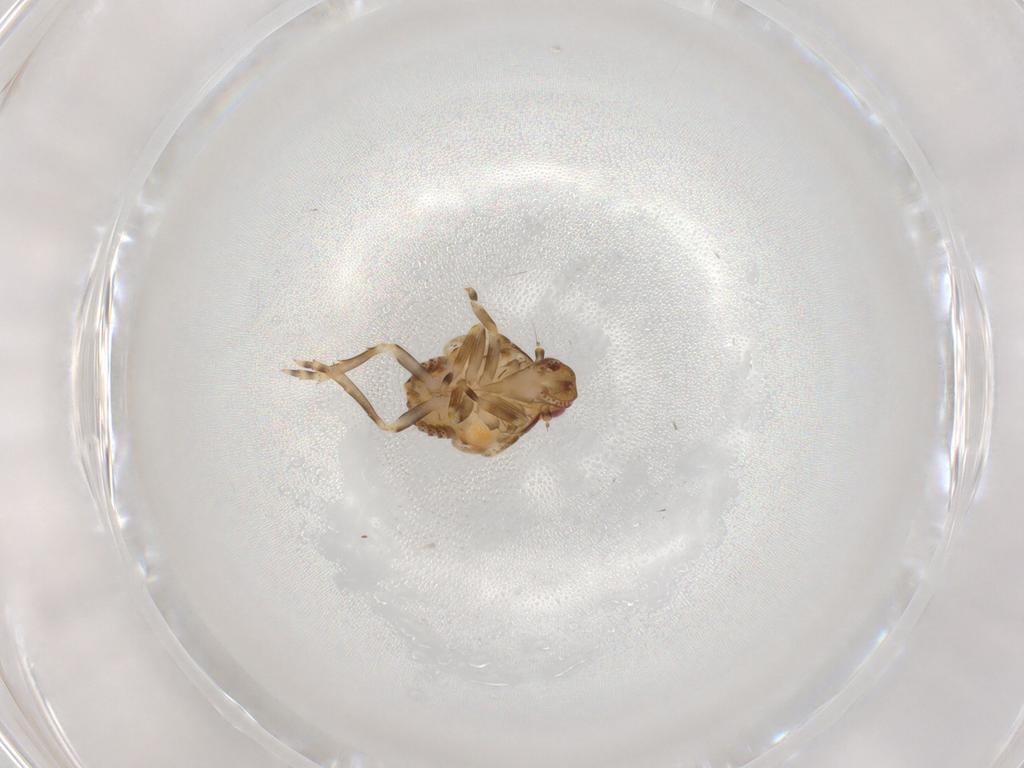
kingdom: Animalia
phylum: Arthropoda
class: Insecta
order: Hemiptera
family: Flatidae
